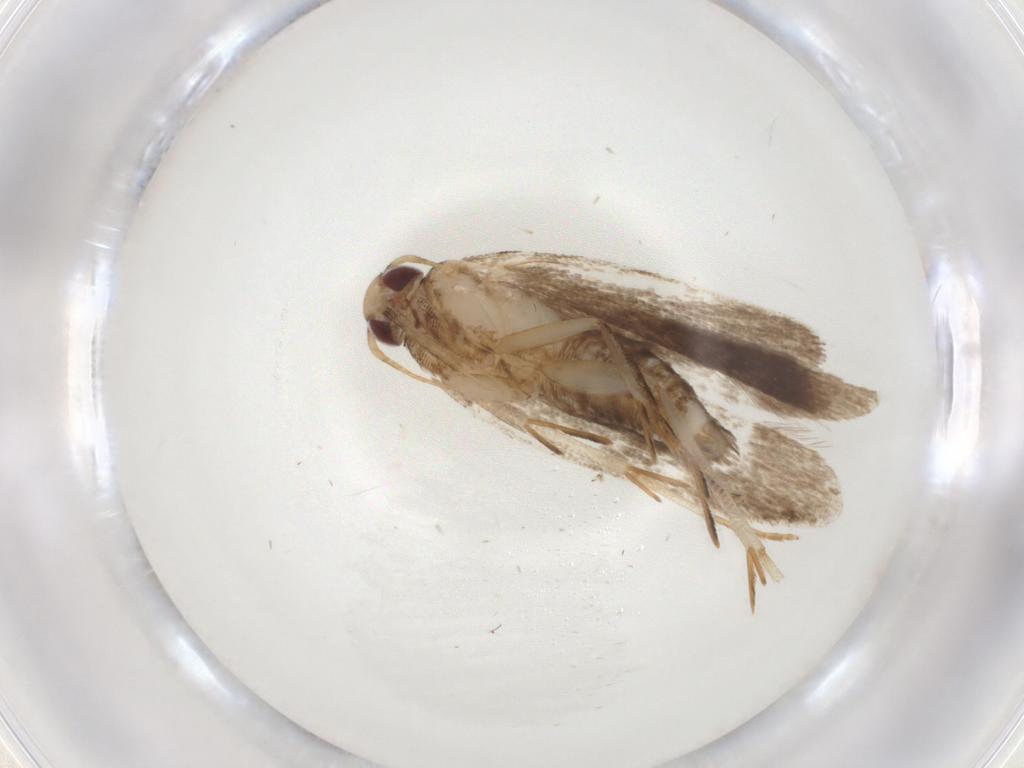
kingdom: Animalia
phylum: Arthropoda
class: Insecta
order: Lepidoptera
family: Gelechiidae
